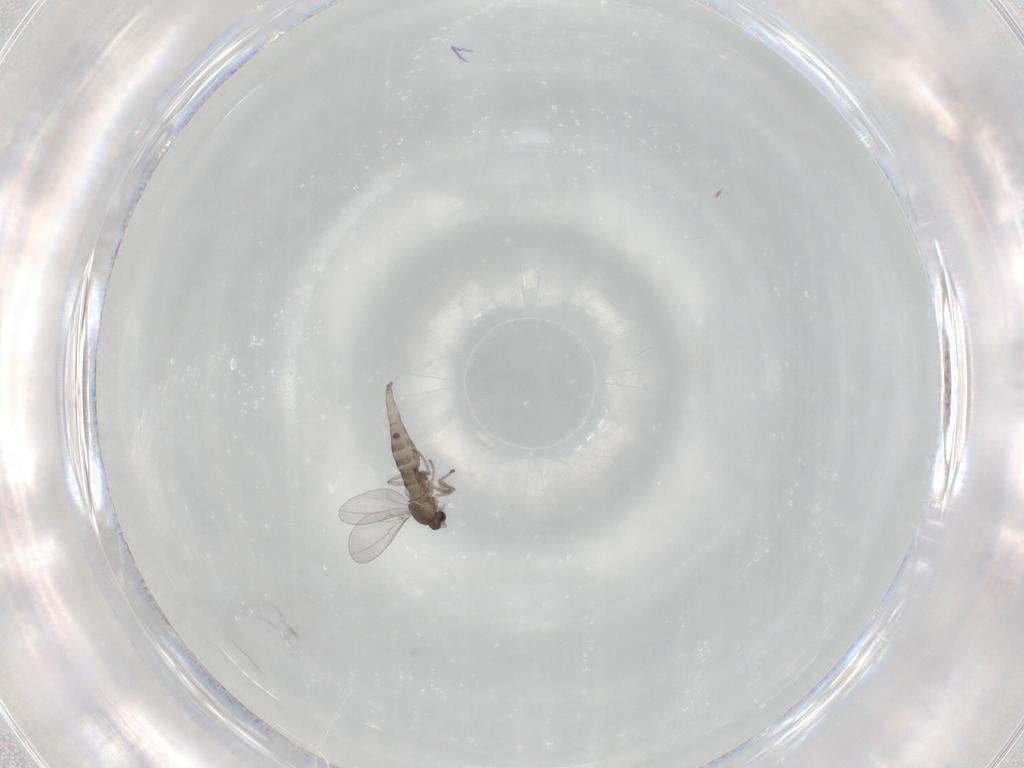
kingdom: Animalia
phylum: Arthropoda
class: Insecta
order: Diptera
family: Cecidomyiidae
